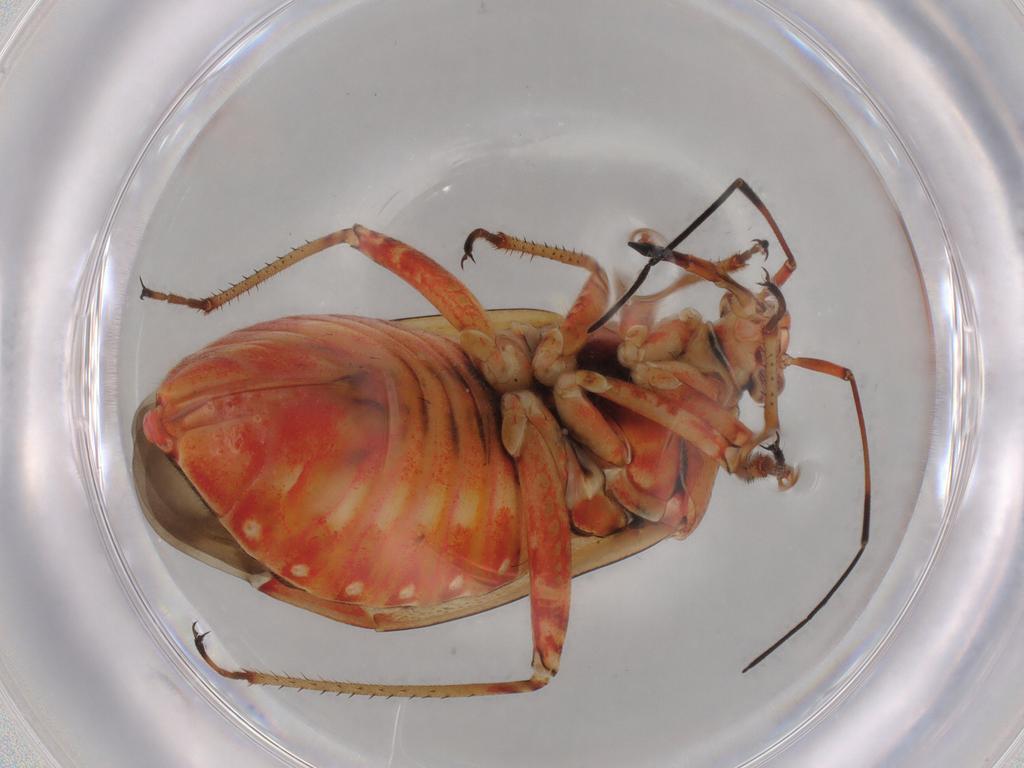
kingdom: Animalia
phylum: Arthropoda
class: Insecta
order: Hemiptera
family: Miridae
